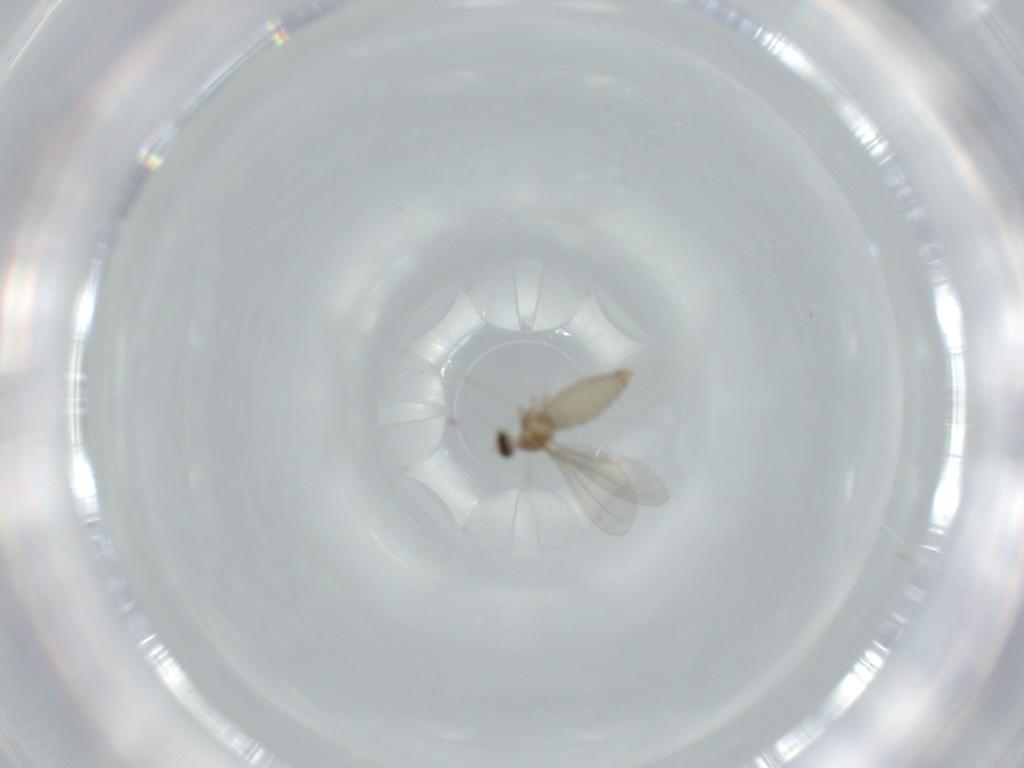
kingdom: Animalia
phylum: Arthropoda
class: Insecta
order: Diptera
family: Cecidomyiidae
